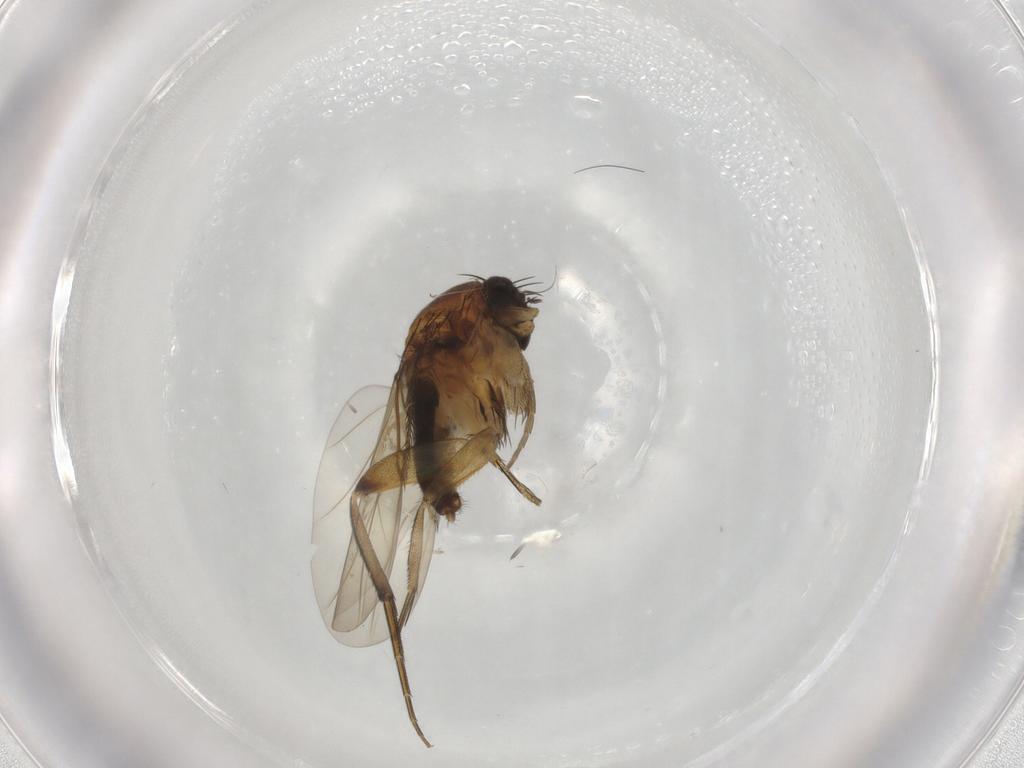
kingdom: Animalia
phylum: Arthropoda
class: Insecta
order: Diptera
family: Phoridae
